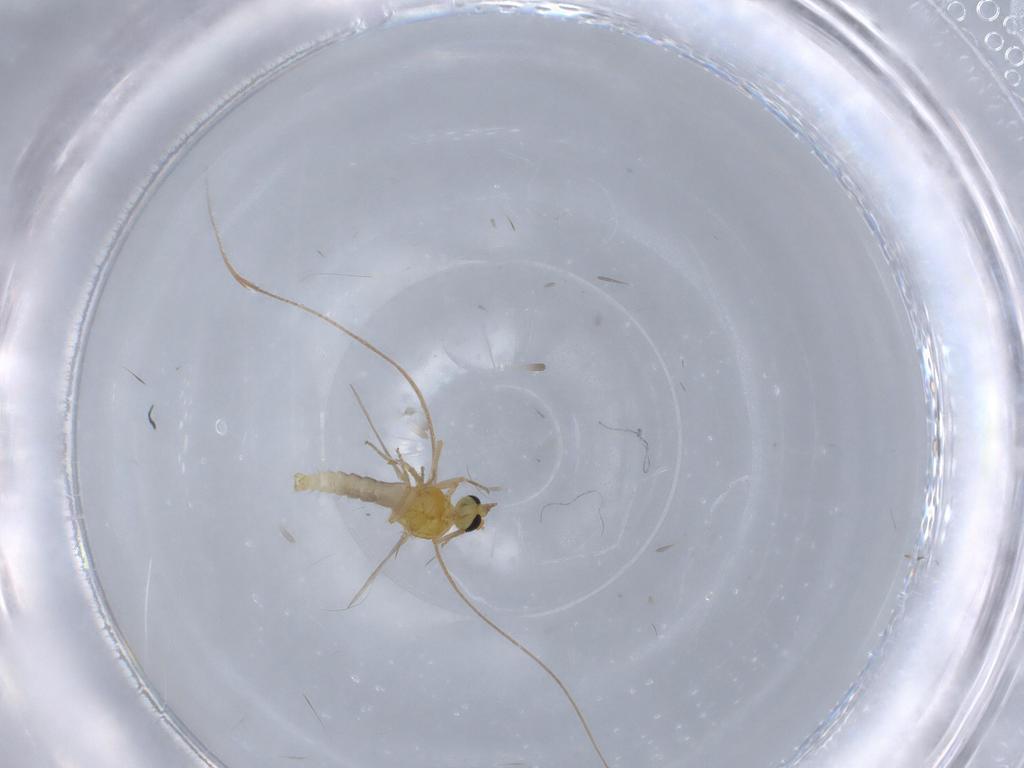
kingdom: Animalia
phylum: Arthropoda
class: Insecta
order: Diptera
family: Ceratopogonidae
